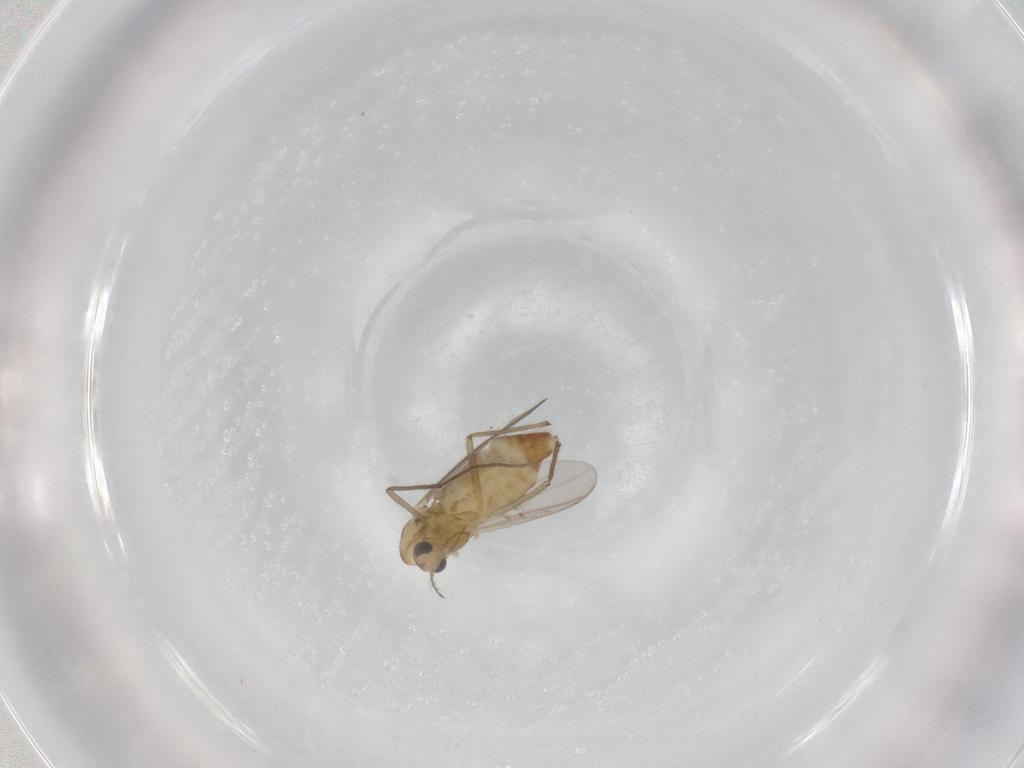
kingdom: Animalia
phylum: Arthropoda
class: Insecta
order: Diptera
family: Chironomidae
